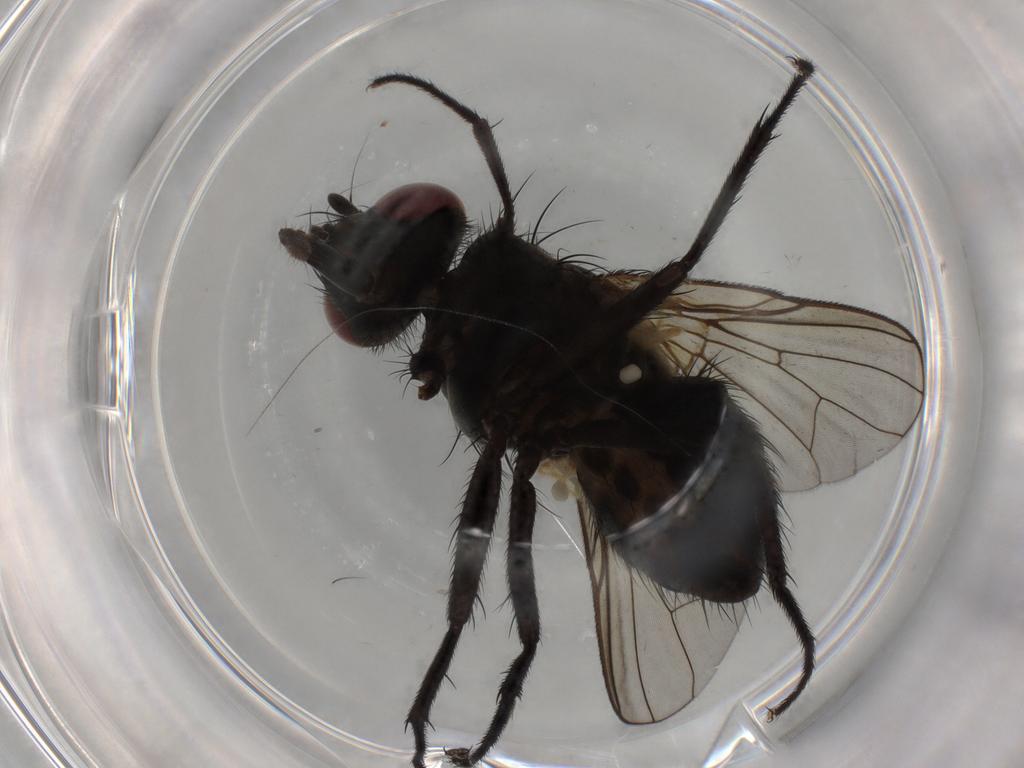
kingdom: Animalia
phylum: Arthropoda
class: Insecta
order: Diptera
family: Muscidae
